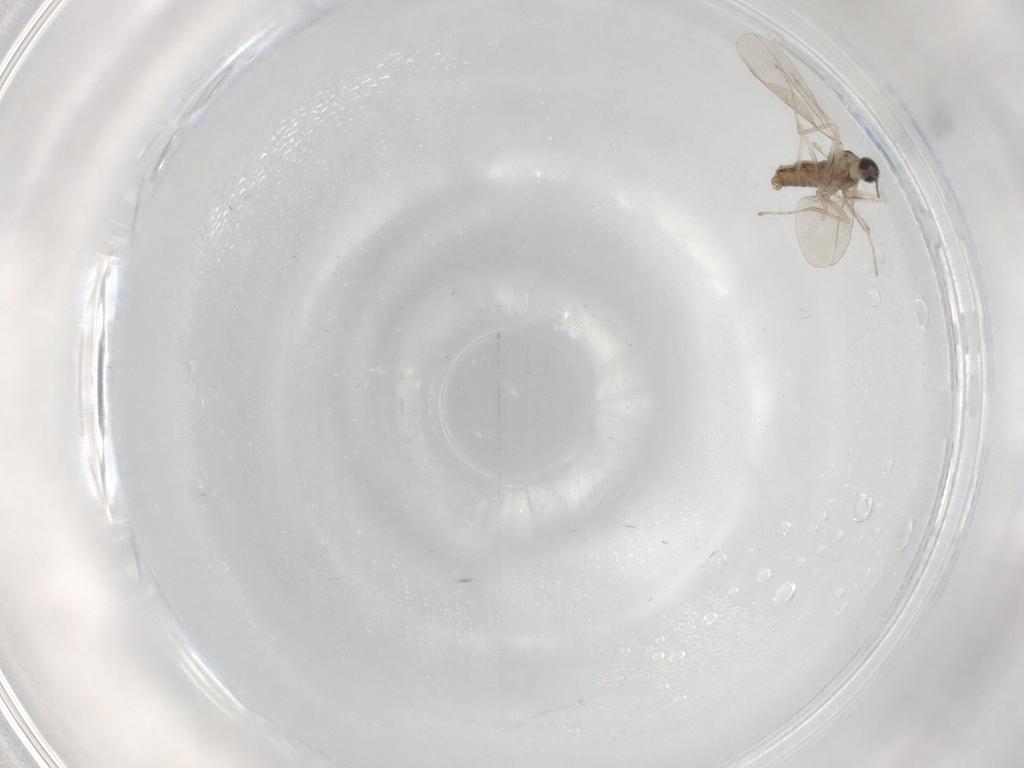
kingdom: Animalia
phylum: Arthropoda
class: Insecta
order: Diptera
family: Cecidomyiidae
